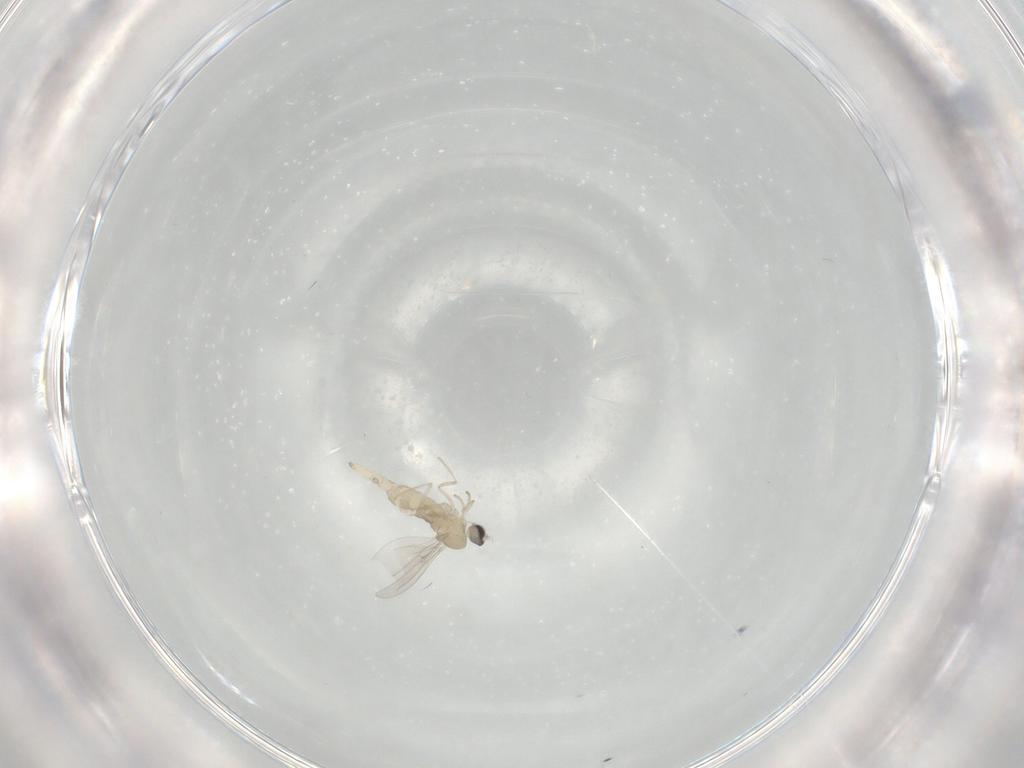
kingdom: Animalia
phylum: Arthropoda
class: Insecta
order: Diptera
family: Cecidomyiidae
